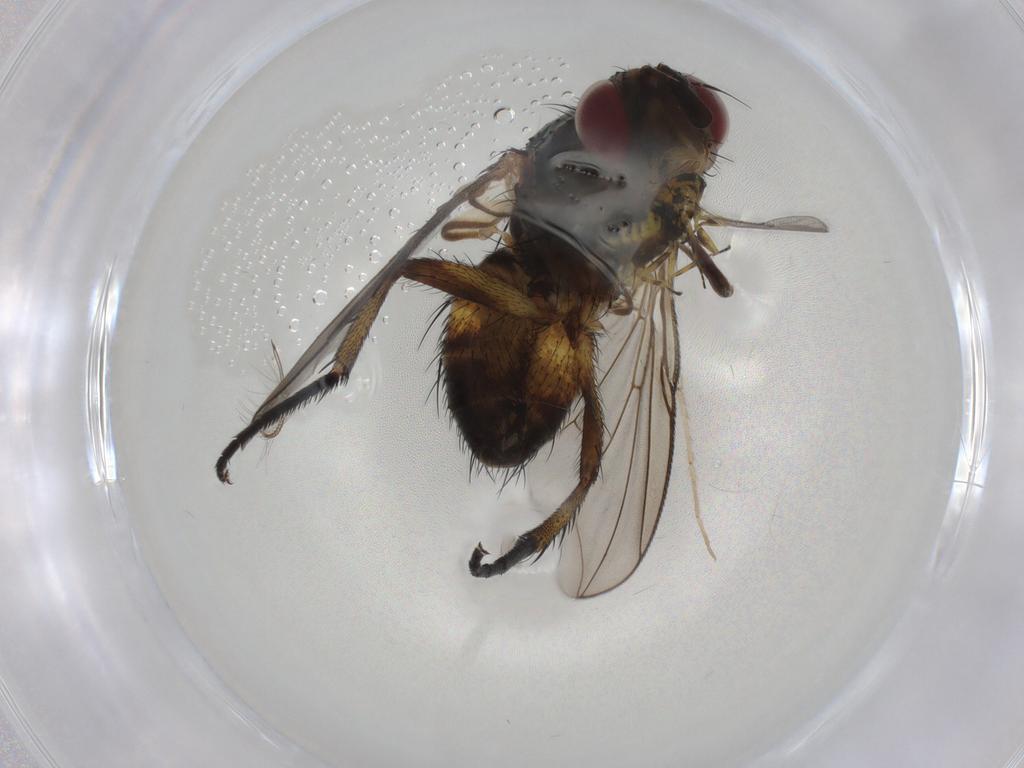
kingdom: Animalia
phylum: Arthropoda
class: Insecta
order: Diptera
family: Tachinidae
